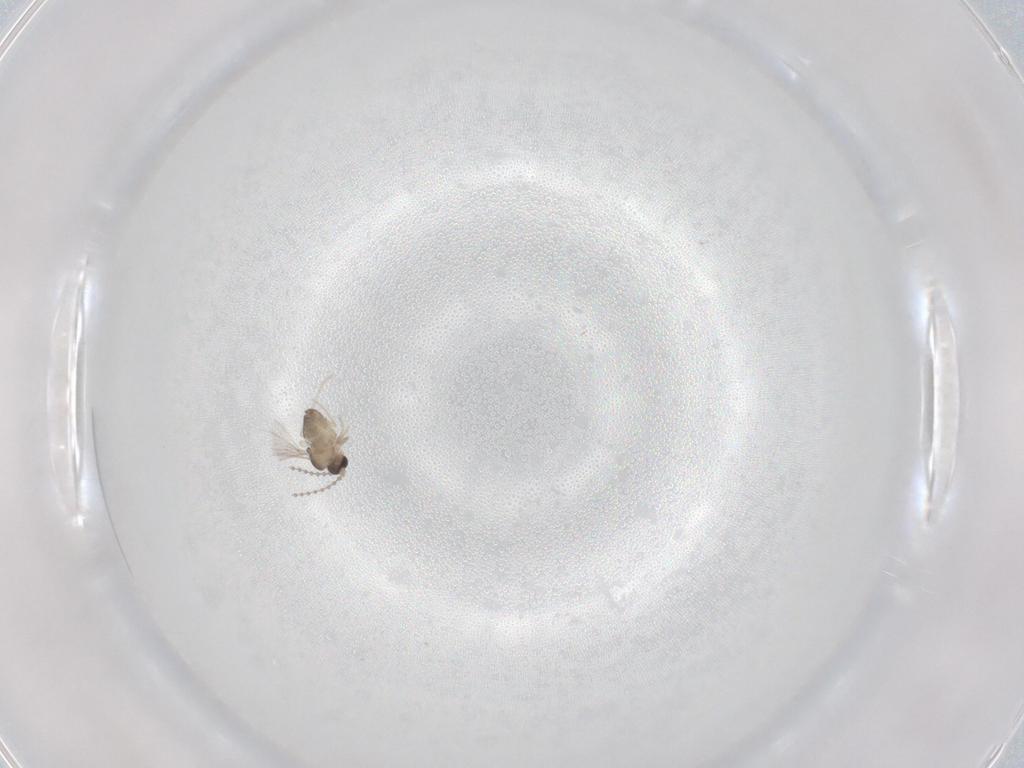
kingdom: Animalia
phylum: Arthropoda
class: Insecta
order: Diptera
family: Cecidomyiidae
